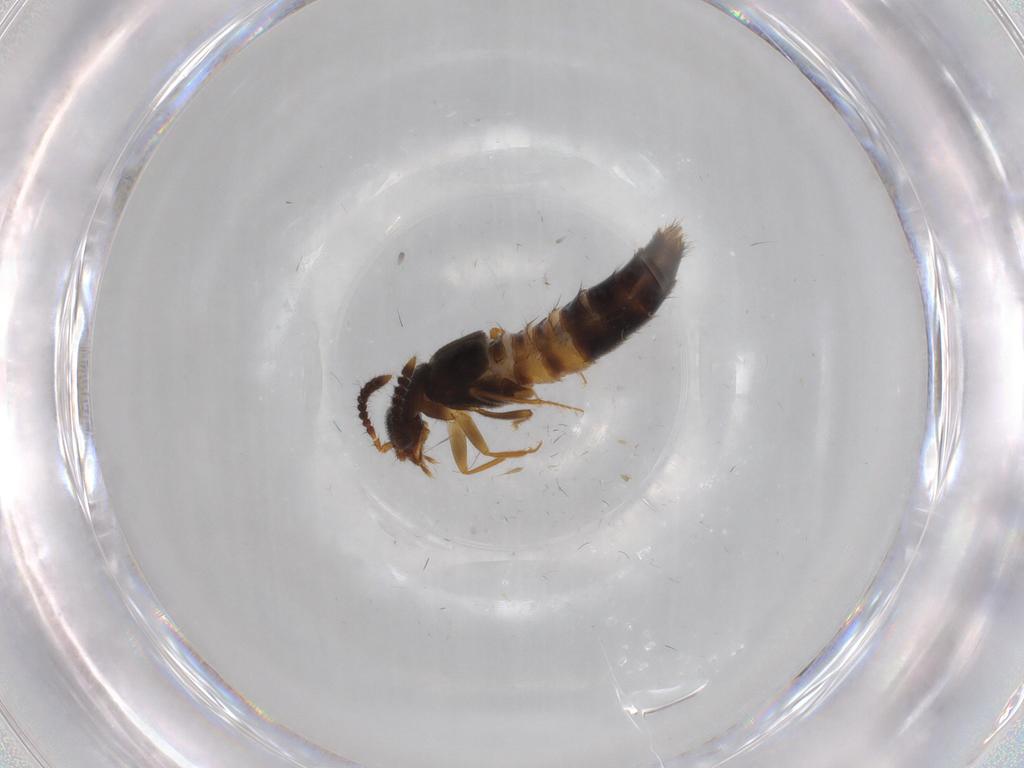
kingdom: Animalia
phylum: Arthropoda
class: Insecta
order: Coleoptera
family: Staphylinidae
